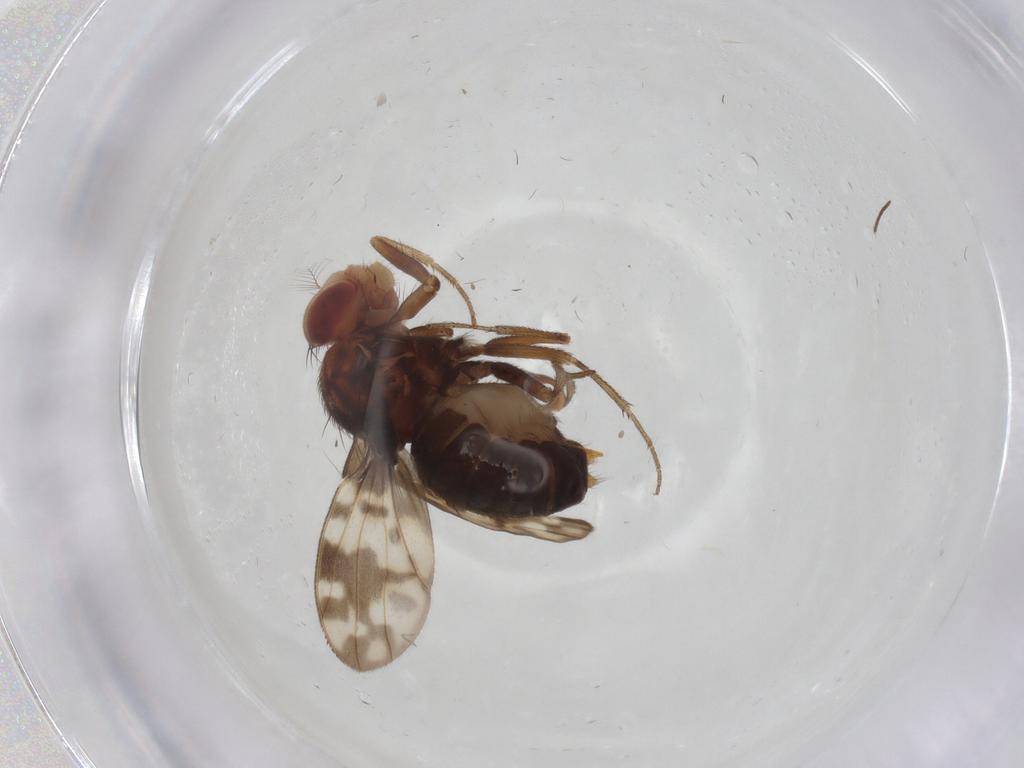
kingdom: Animalia
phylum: Arthropoda
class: Insecta
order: Diptera
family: Drosophilidae
